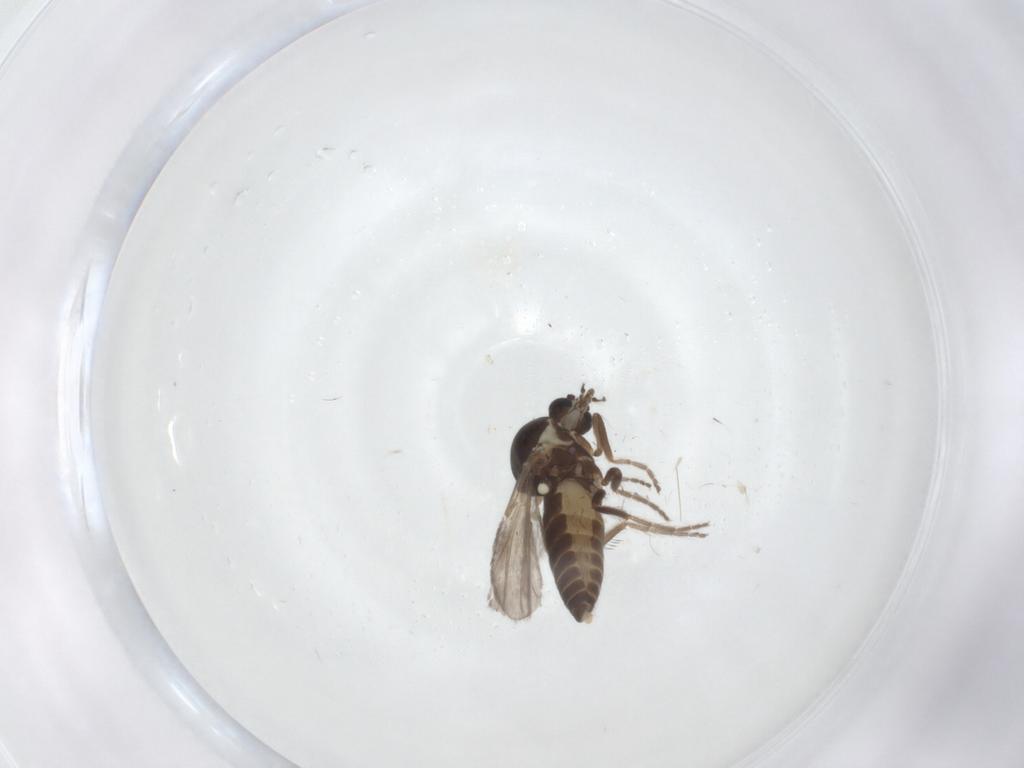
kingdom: Animalia
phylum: Arthropoda
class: Insecta
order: Diptera
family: Ceratopogonidae
